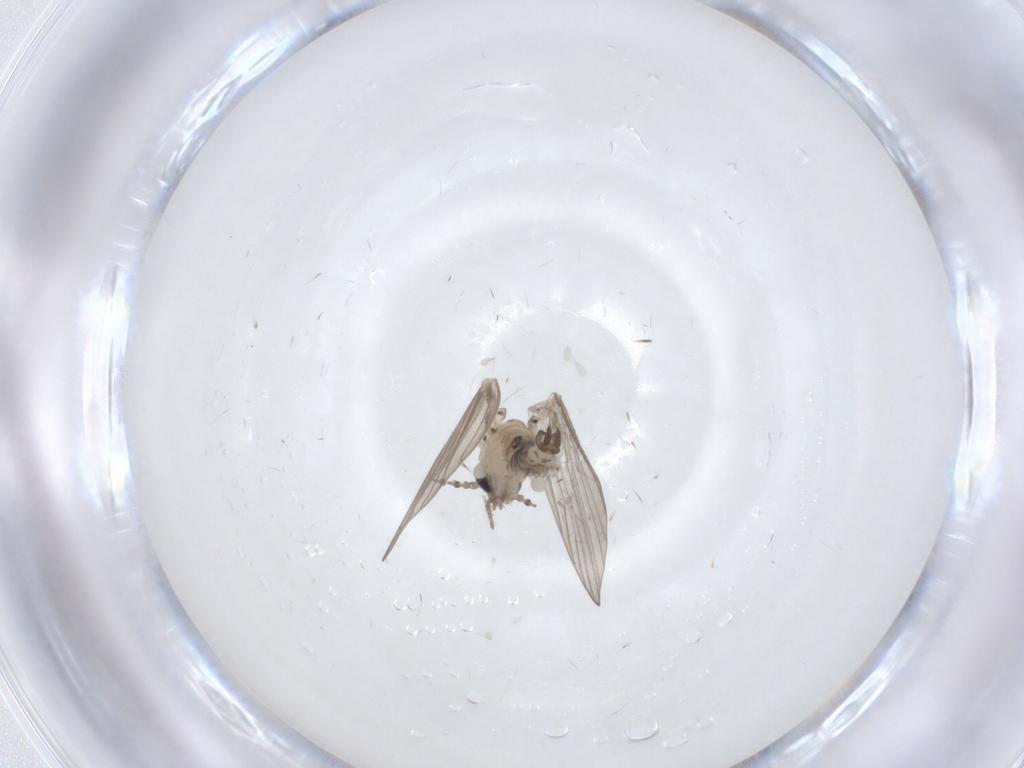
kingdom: Animalia
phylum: Arthropoda
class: Insecta
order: Diptera
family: Psychodidae
